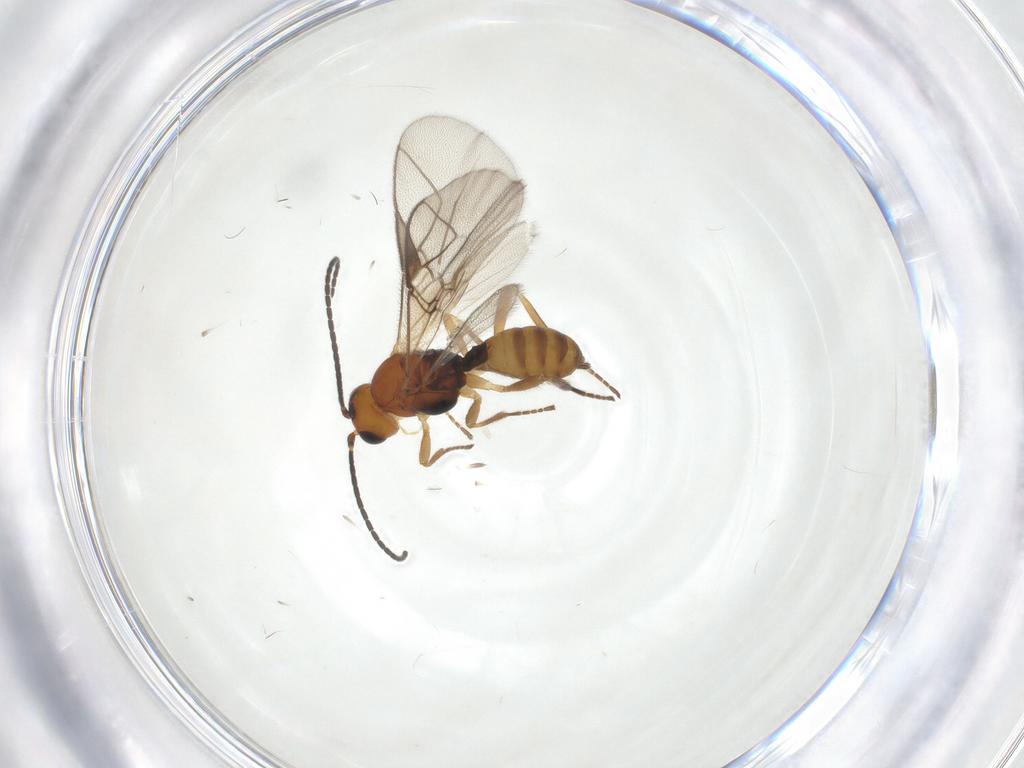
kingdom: Animalia
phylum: Arthropoda
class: Insecta
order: Hymenoptera
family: Braconidae
